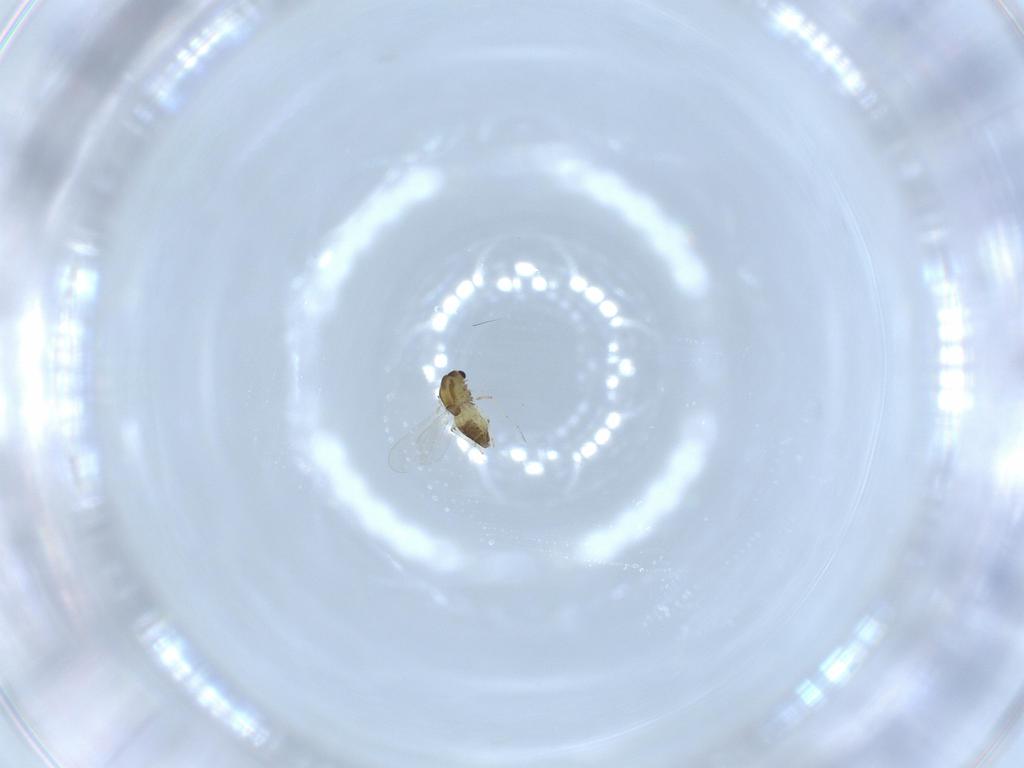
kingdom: Animalia
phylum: Arthropoda
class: Insecta
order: Diptera
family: Chironomidae
